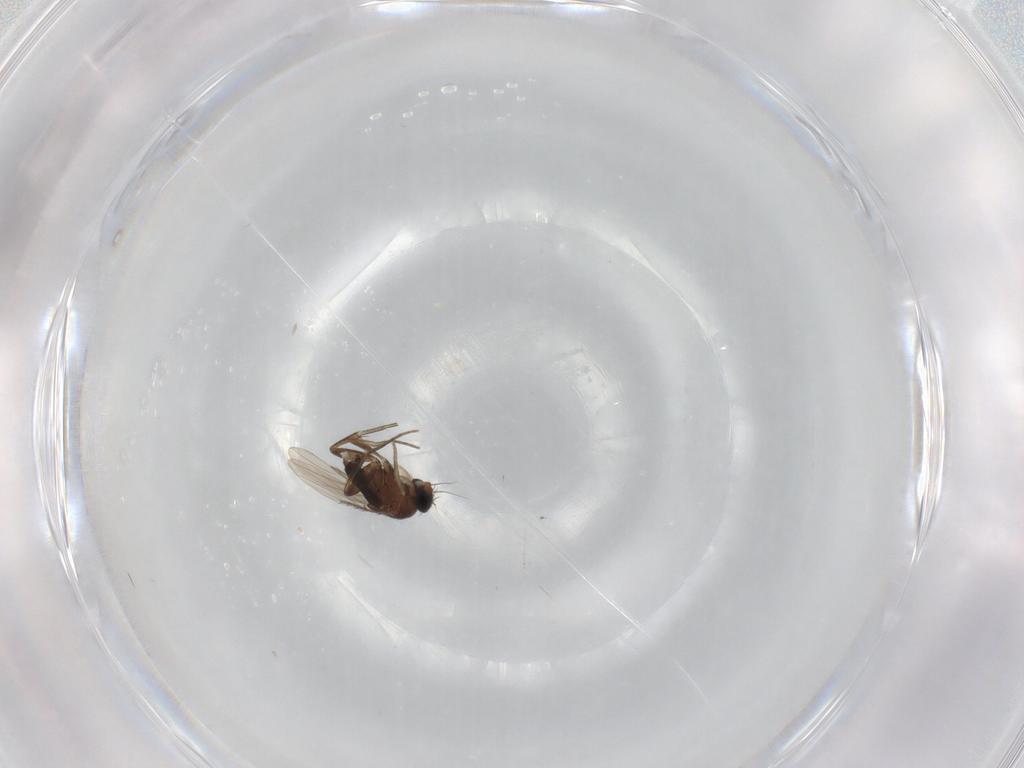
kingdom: Animalia
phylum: Arthropoda
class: Insecta
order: Diptera
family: Phoridae
